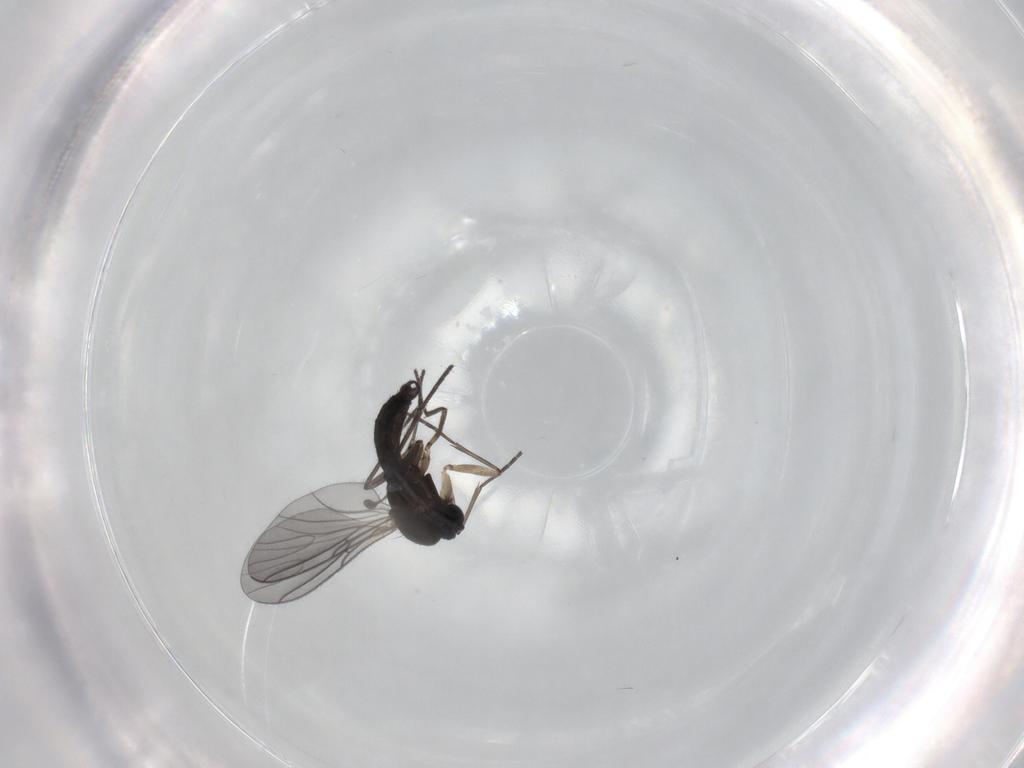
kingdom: Animalia
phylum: Arthropoda
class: Insecta
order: Diptera
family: Sciaridae
